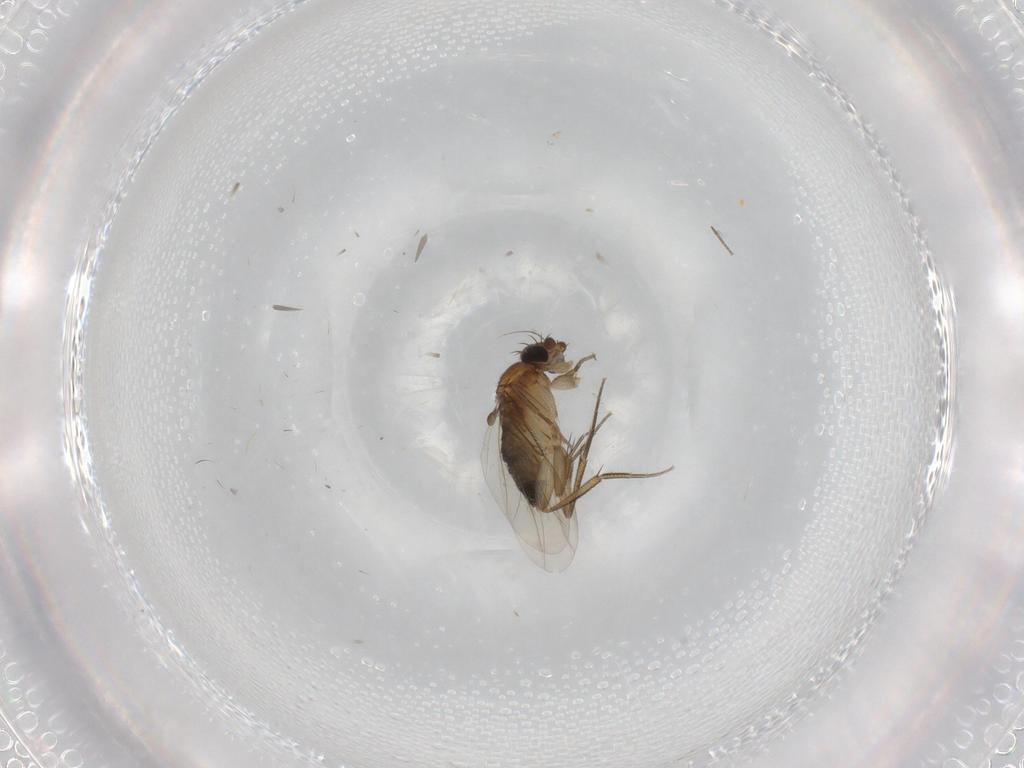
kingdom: Animalia
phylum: Arthropoda
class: Insecta
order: Diptera
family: Phoridae
